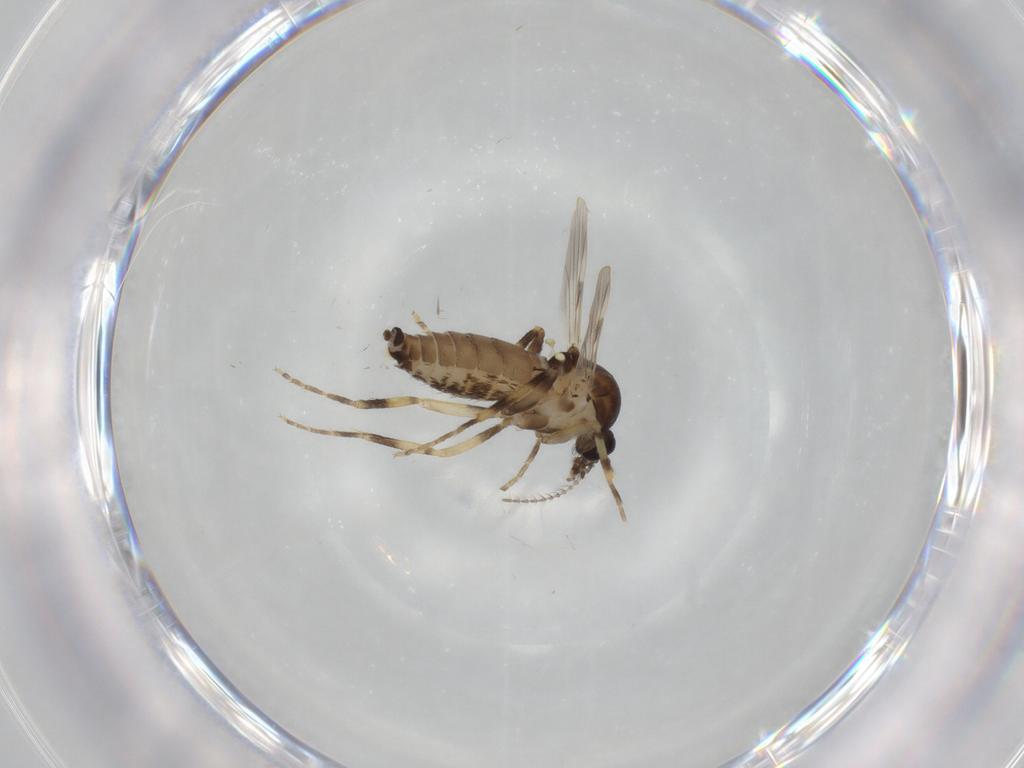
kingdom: Animalia
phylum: Arthropoda
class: Insecta
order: Diptera
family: Ceratopogonidae
